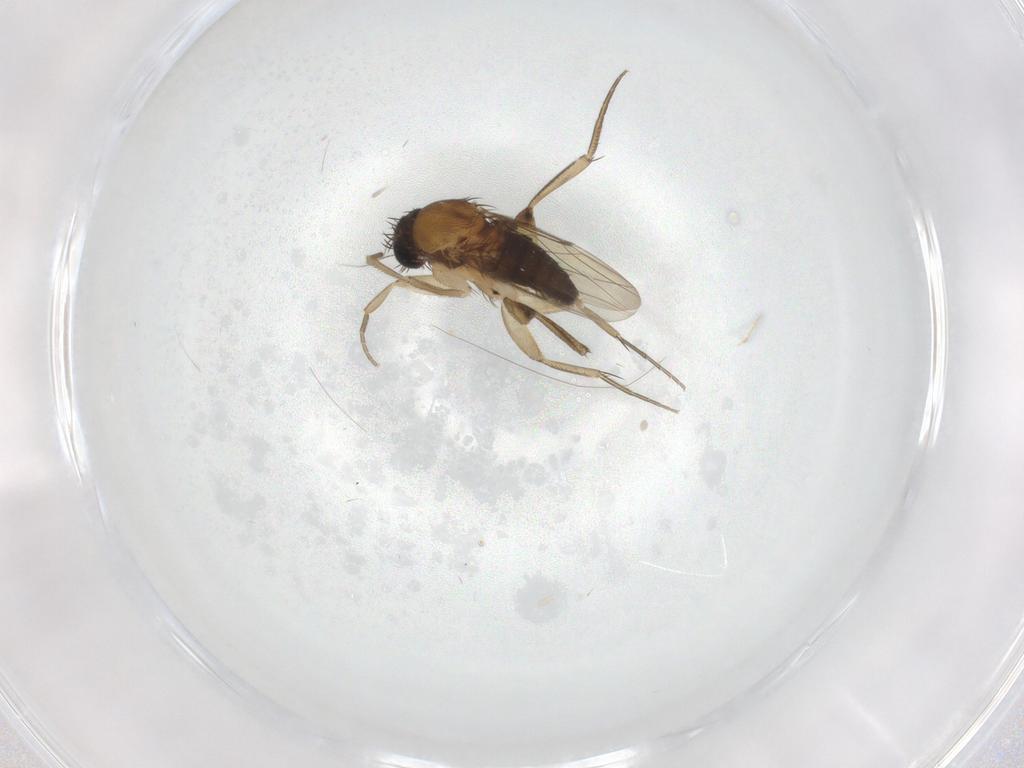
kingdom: Animalia
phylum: Arthropoda
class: Insecta
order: Diptera
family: Phoridae
